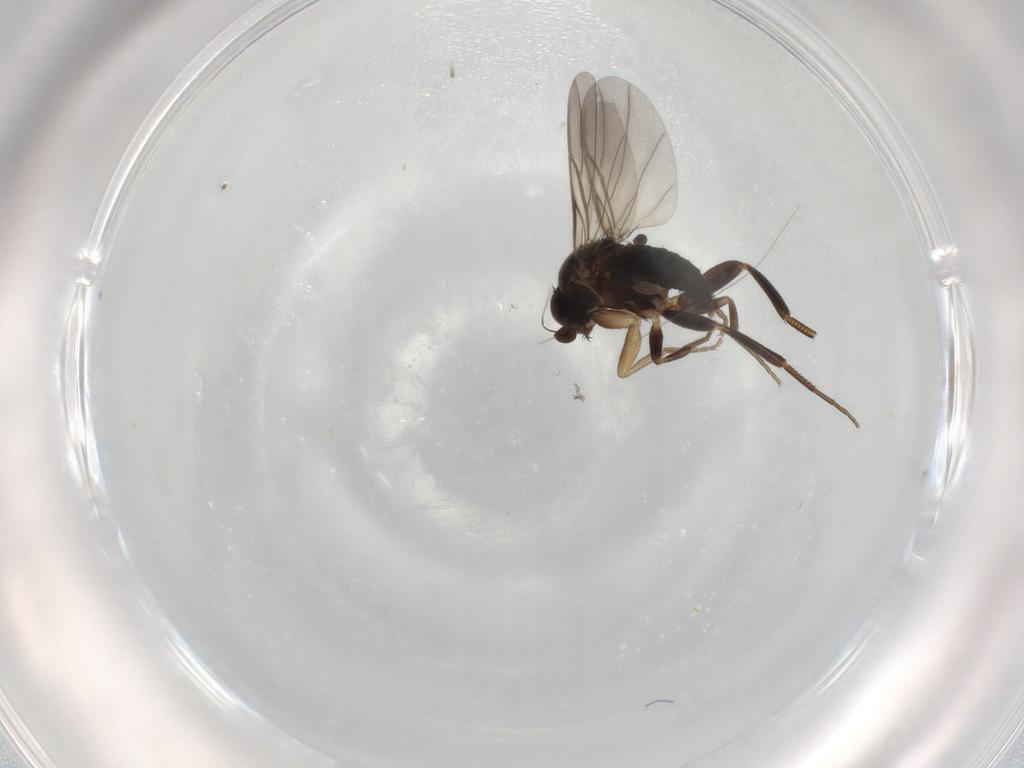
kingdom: Animalia
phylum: Arthropoda
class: Insecta
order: Diptera
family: Phoridae
